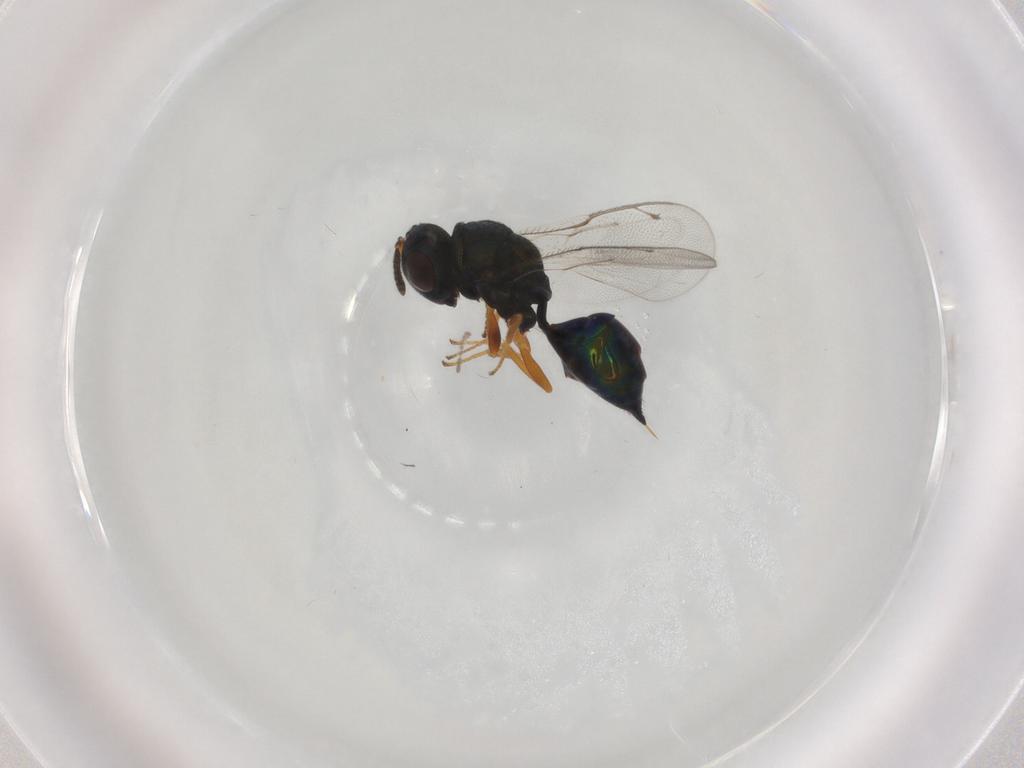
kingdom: Animalia
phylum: Arthropoda
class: Insecta
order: Hymenoptera
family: Pteromalidae
